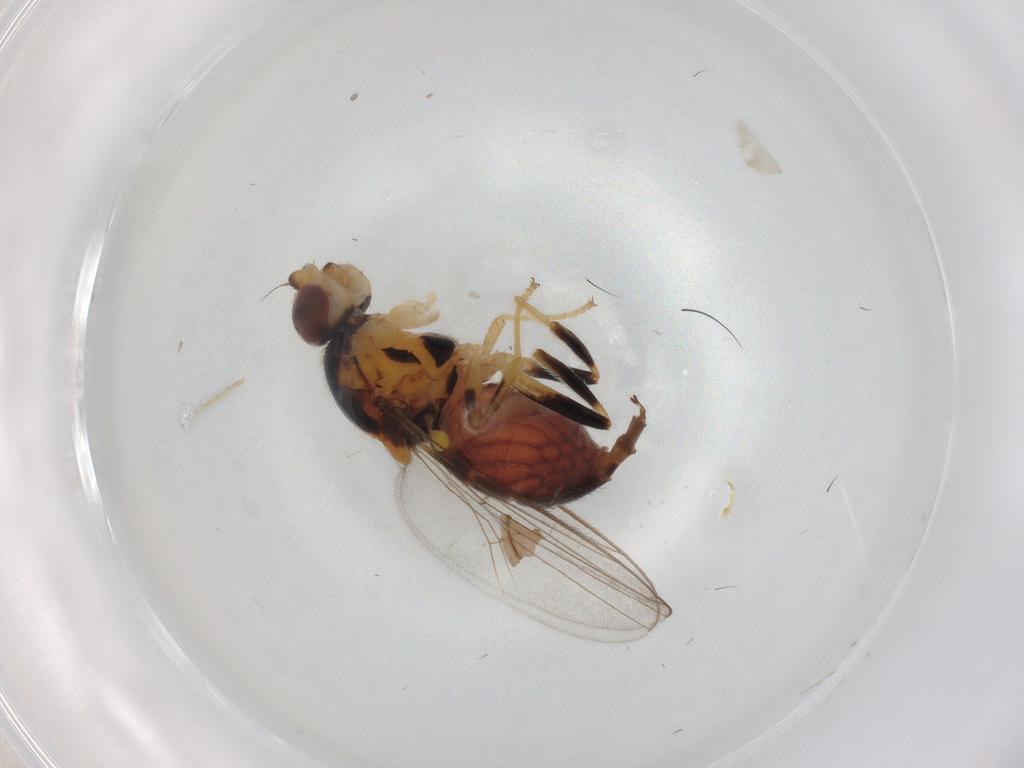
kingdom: Animalia
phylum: Arthropoda
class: Insecta
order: Diptera
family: Chloropidae
